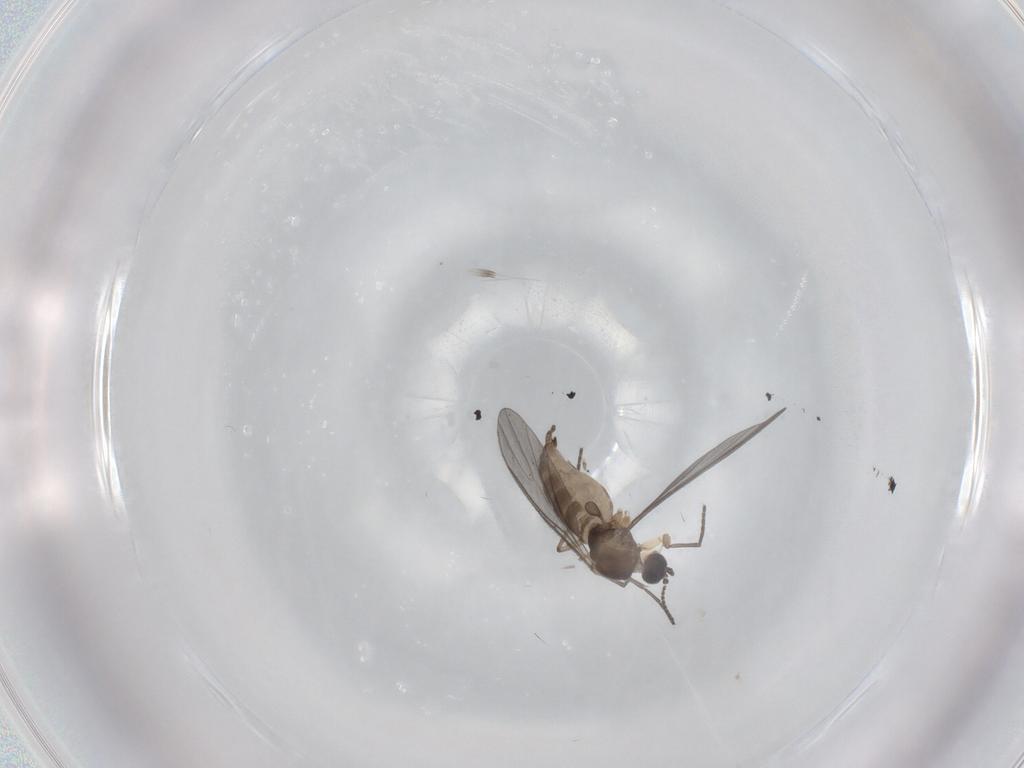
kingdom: Animalia
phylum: Arthropoda
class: Insecta
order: Diptera
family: Sciaridae
